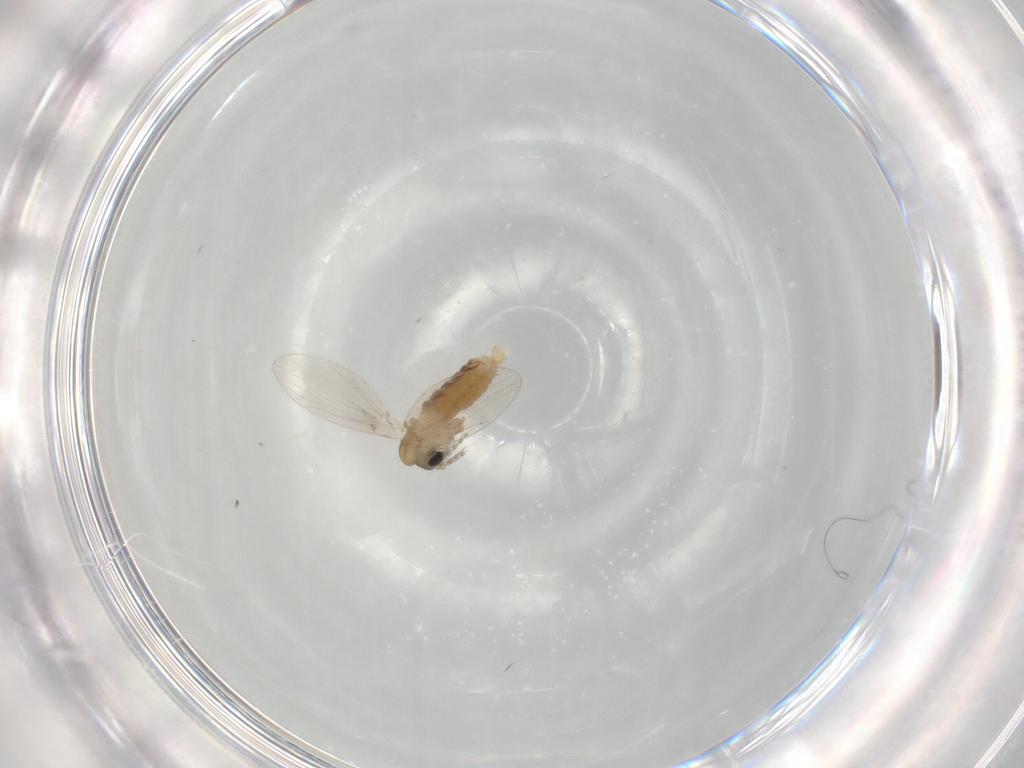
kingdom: Animalia
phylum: Arthropoda
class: Insecta
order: Diptera
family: Psychodidae
